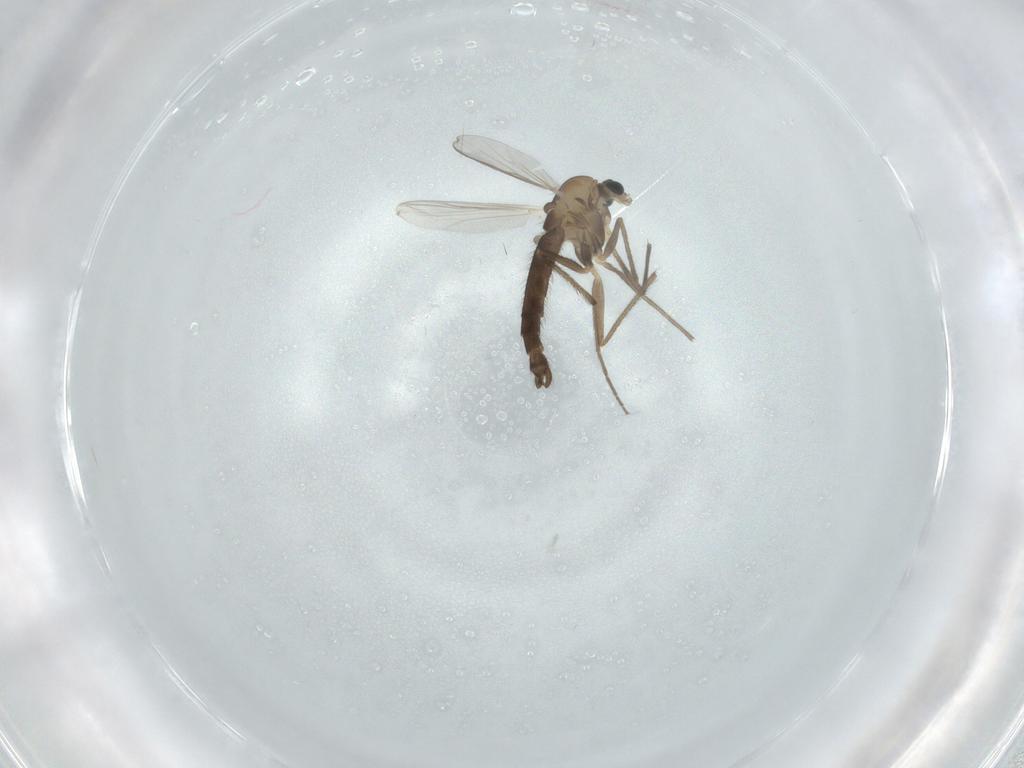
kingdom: Animalia
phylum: Arthropoda
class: Insecta
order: Diptera
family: Chironomidae
